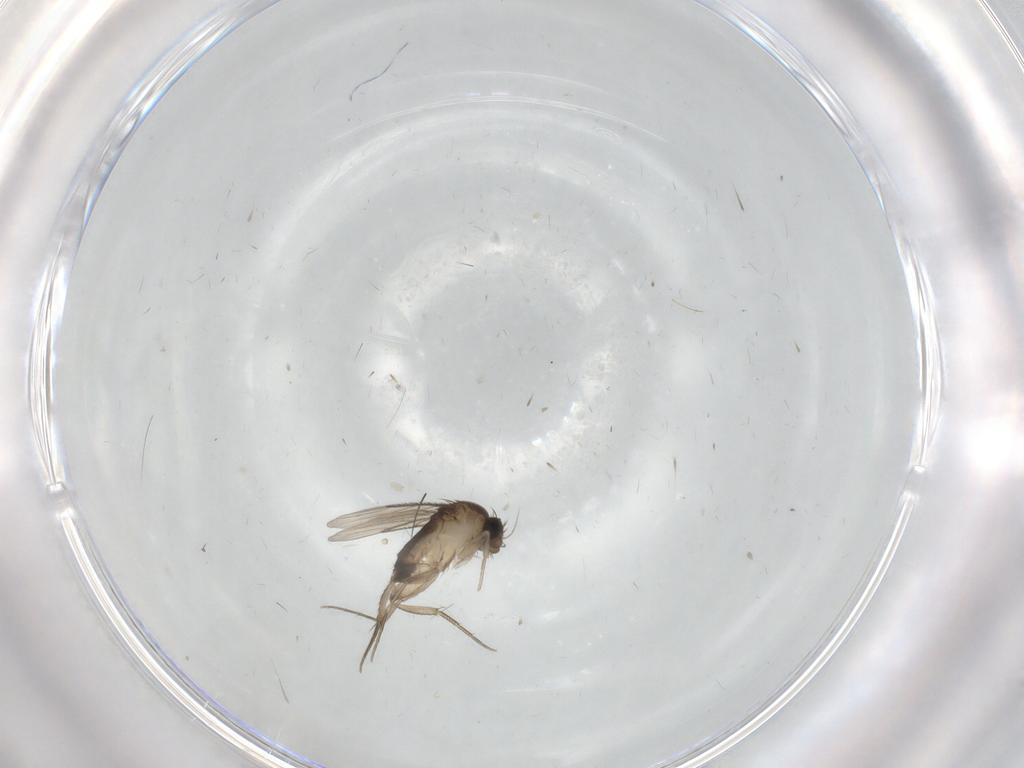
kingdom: Animalia
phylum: Arthropoda
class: Insecta
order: Diptera
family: Phoridae
